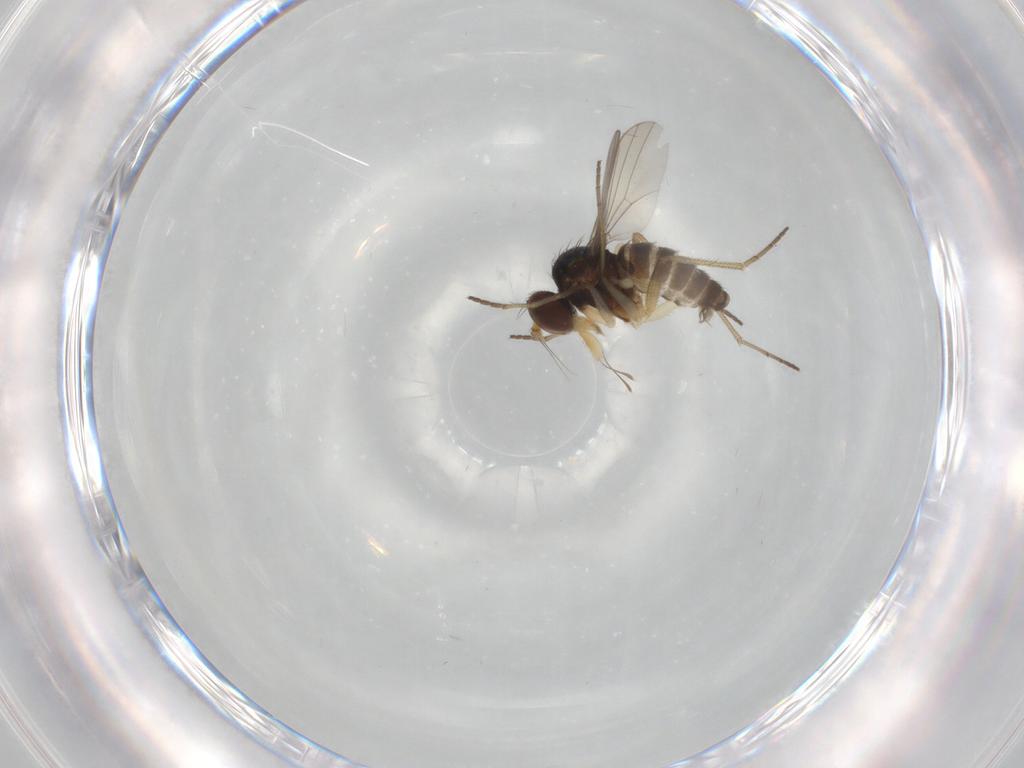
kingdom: Animalia
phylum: Arthropoda
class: Insecta
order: Diptera
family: Dolichopodidae
